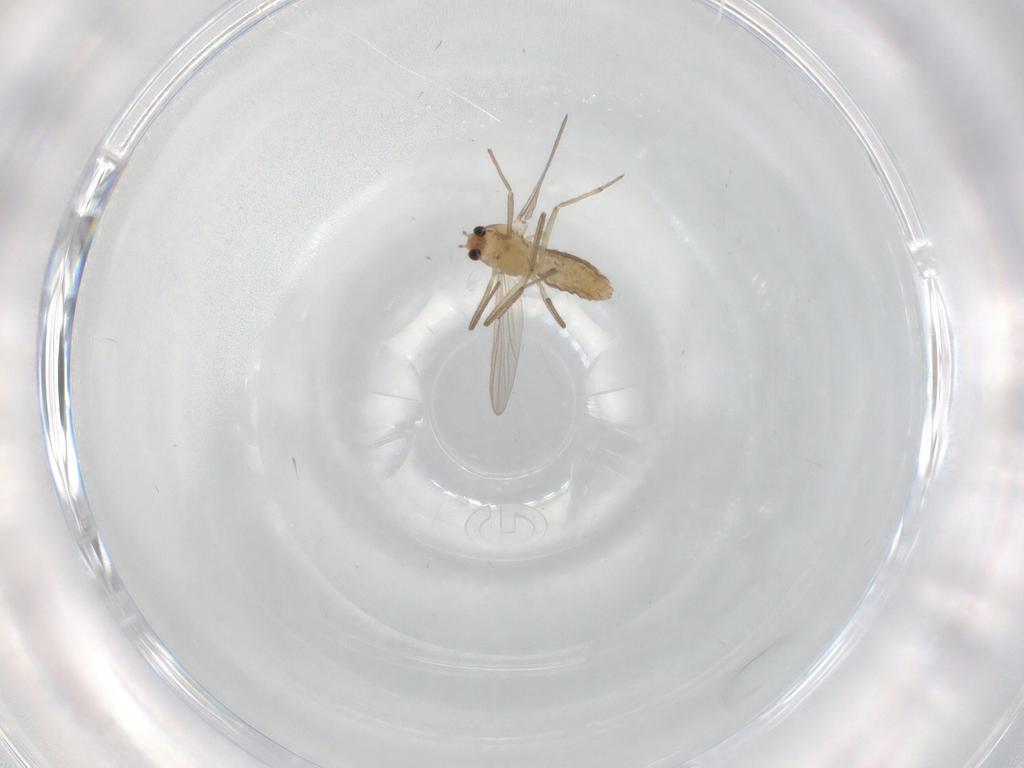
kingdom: Animalia
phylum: Arthropoda
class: Insecta
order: Diptera
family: Chironomidae
